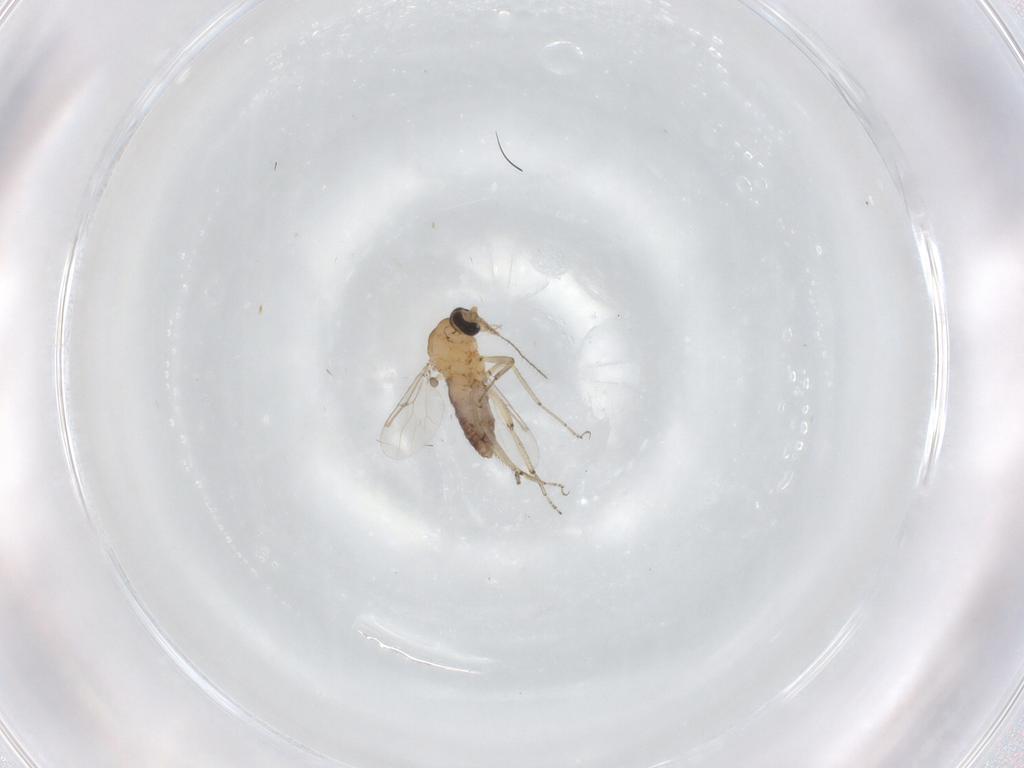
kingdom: Animalia
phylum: Arthropoda
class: Insecta
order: Diptera
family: Ceratopogonidae
